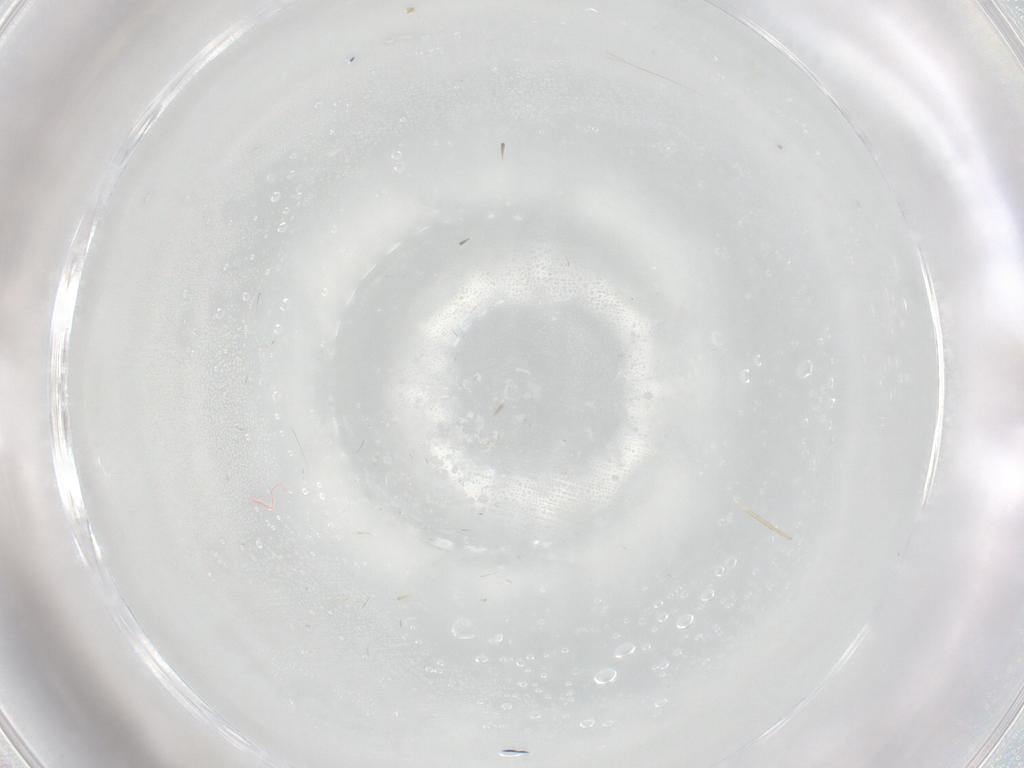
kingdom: Animalia
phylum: Arthropoda
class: Insecta
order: Diptera
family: Cecidomyiidae
